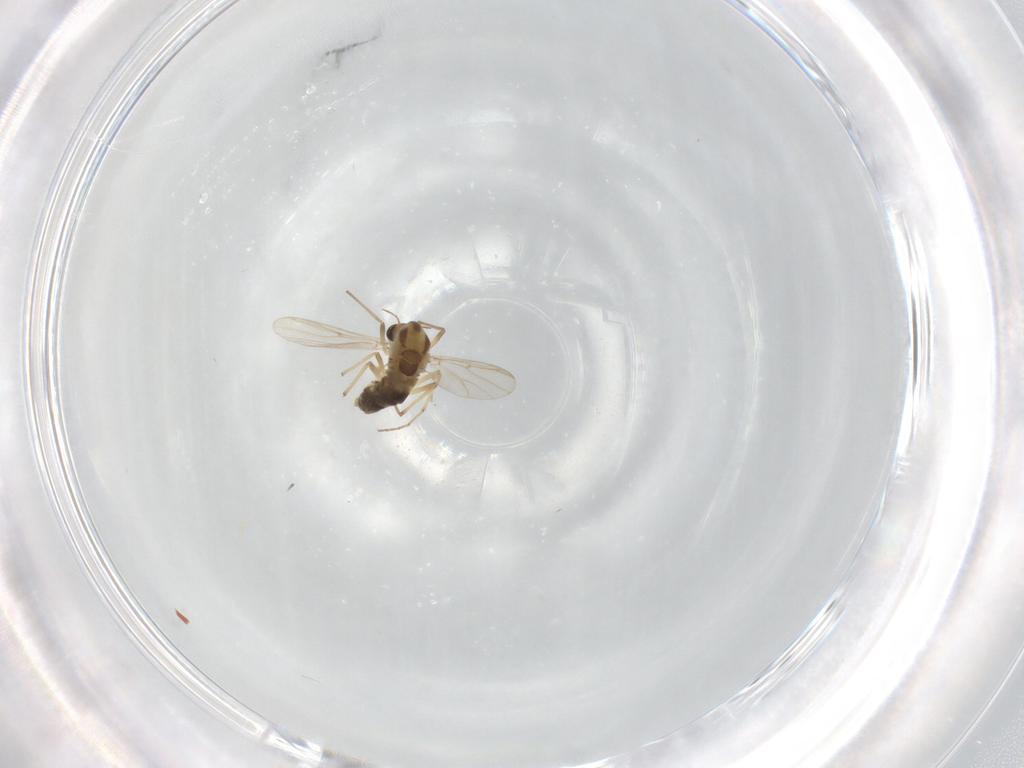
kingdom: Animalia
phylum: Arthropoda
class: Insecta
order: Diptera
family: Chironomidae
